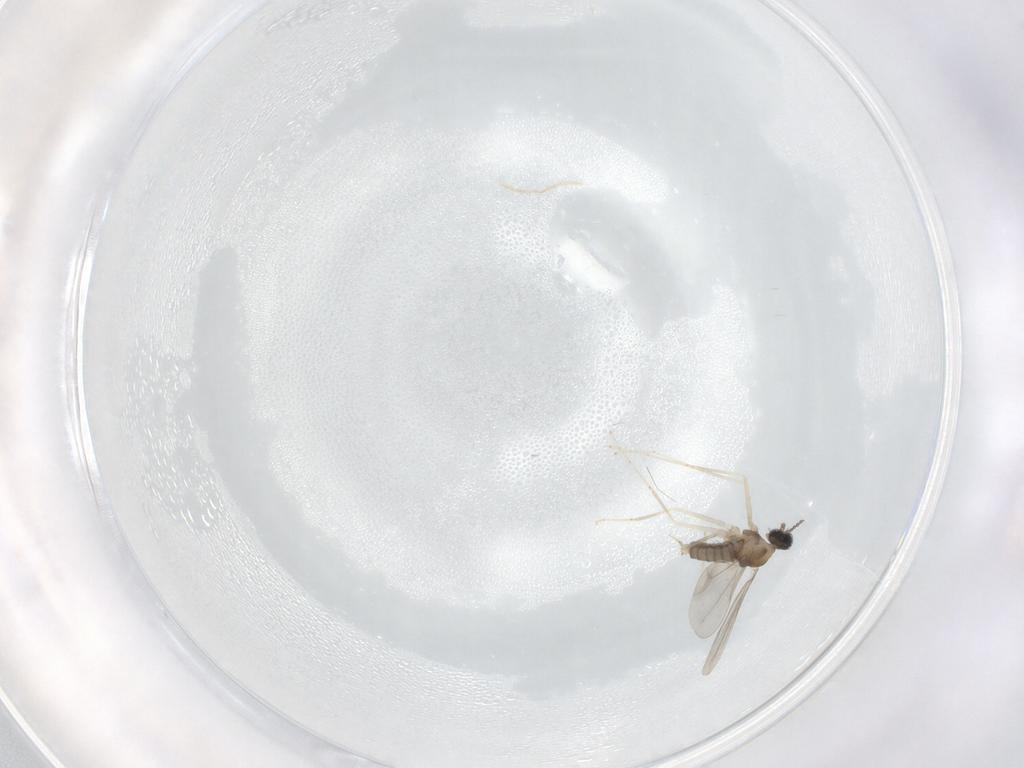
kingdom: Animalia
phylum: Arthropoda
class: Insecta
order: Diptera
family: Cecidomyiidae
